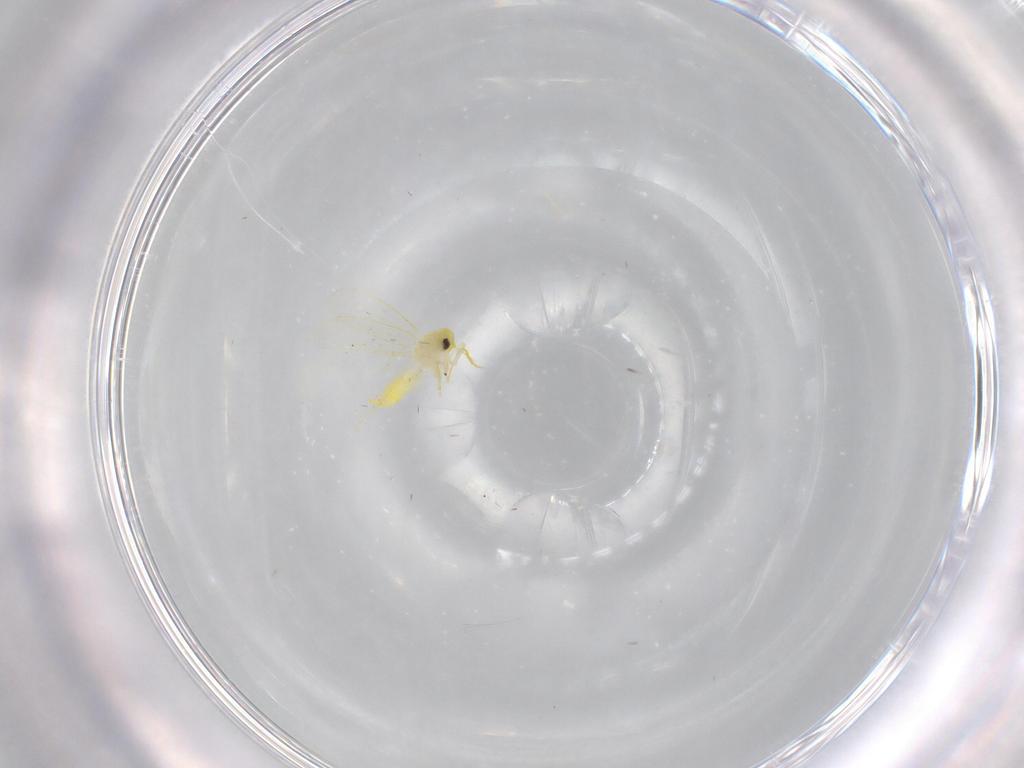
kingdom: Animalia
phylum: Arthropoda
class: Insecta
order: Hemiptera
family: Aleyrodidae
